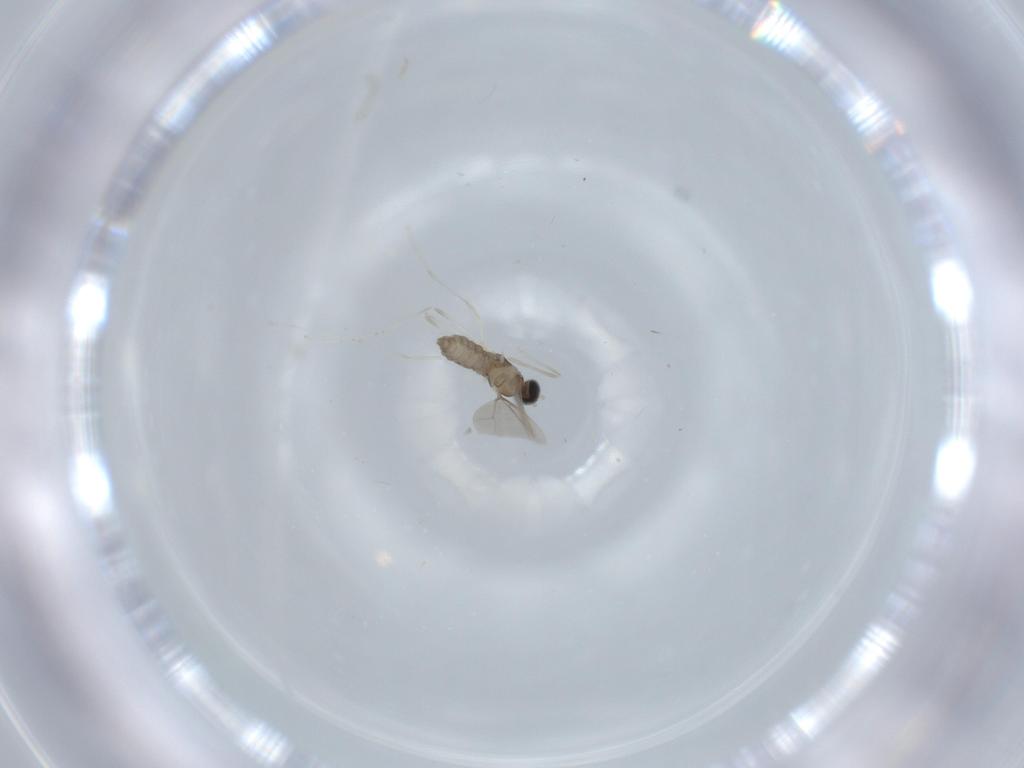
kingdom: Animalia
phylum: Arthropoda
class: Insecta
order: Diptera
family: Cecidomyiidae
